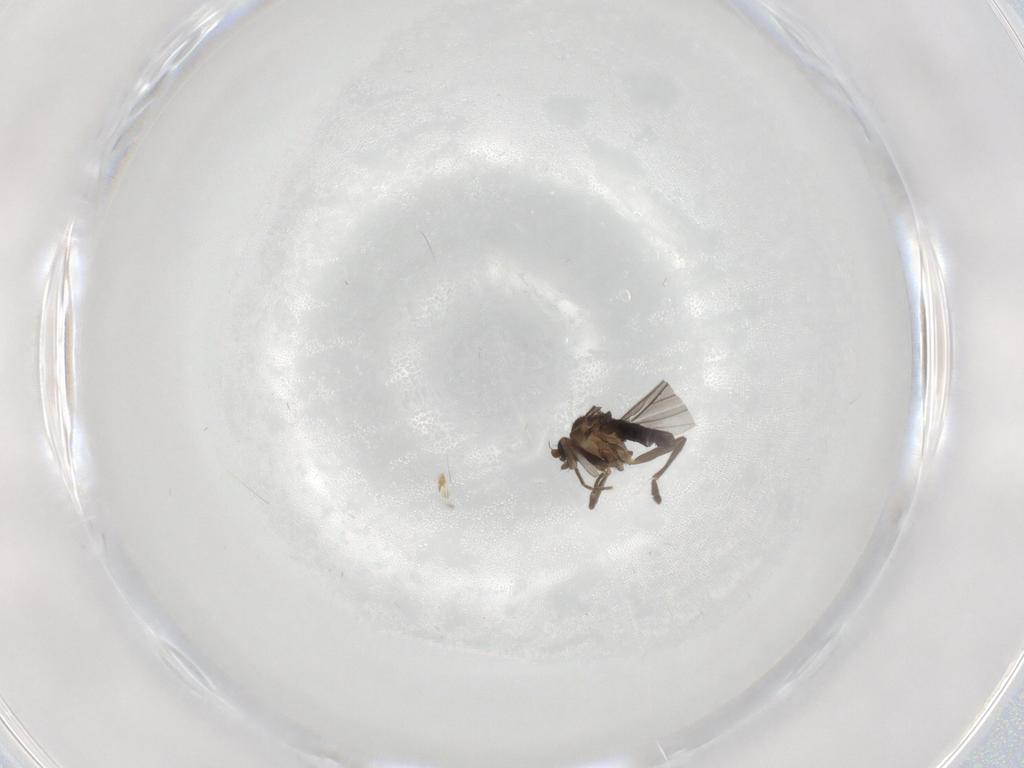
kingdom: Animalia
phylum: Arthropoda
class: Insecta
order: Diptera
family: Phoridae
